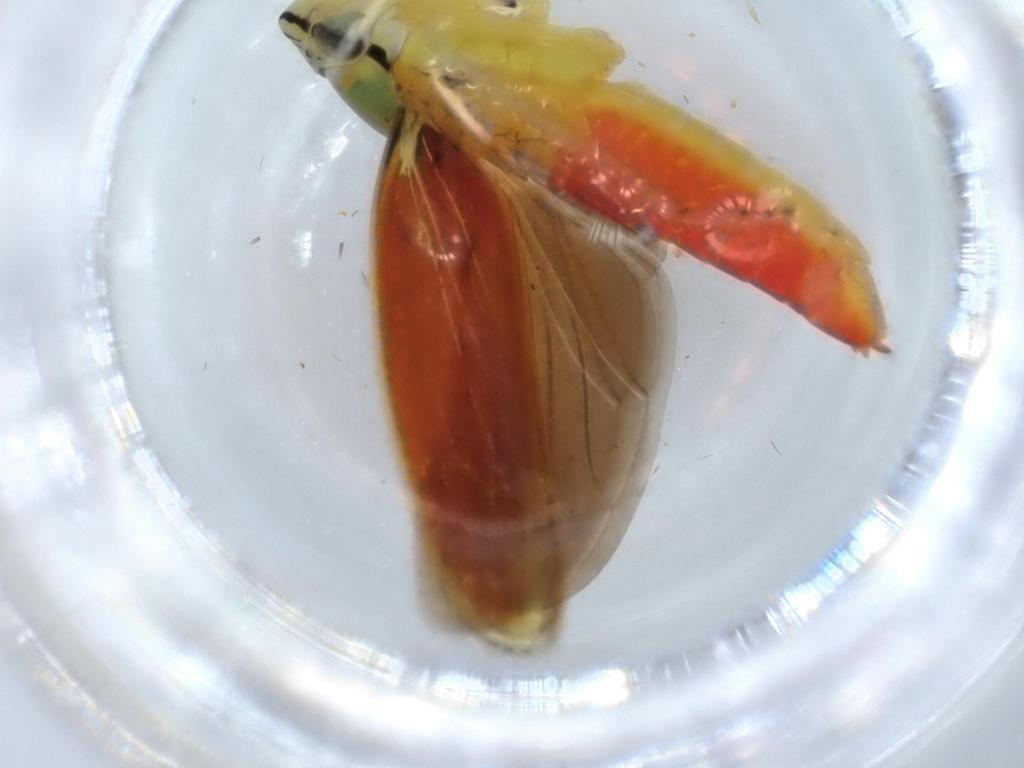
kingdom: Animalia
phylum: Arthropoda
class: Insecta
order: Hemiptera
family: Cicadellidae
